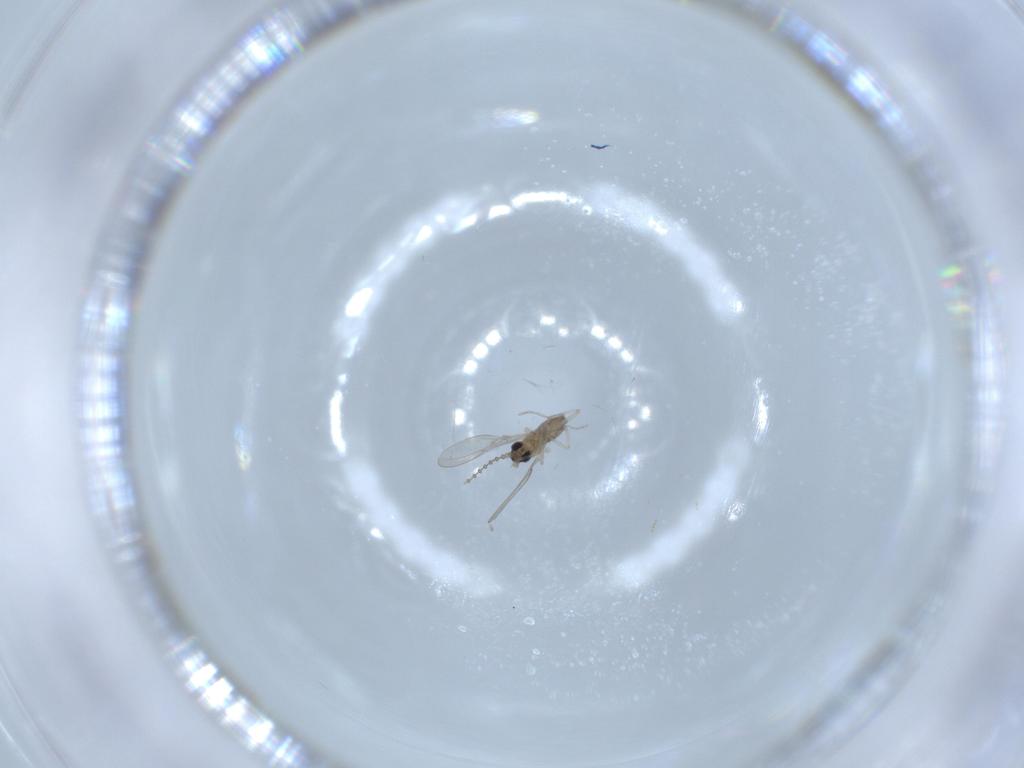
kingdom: Animalia
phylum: Arthropoda
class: Insecta
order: Diptera
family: Cecidomyiidae
